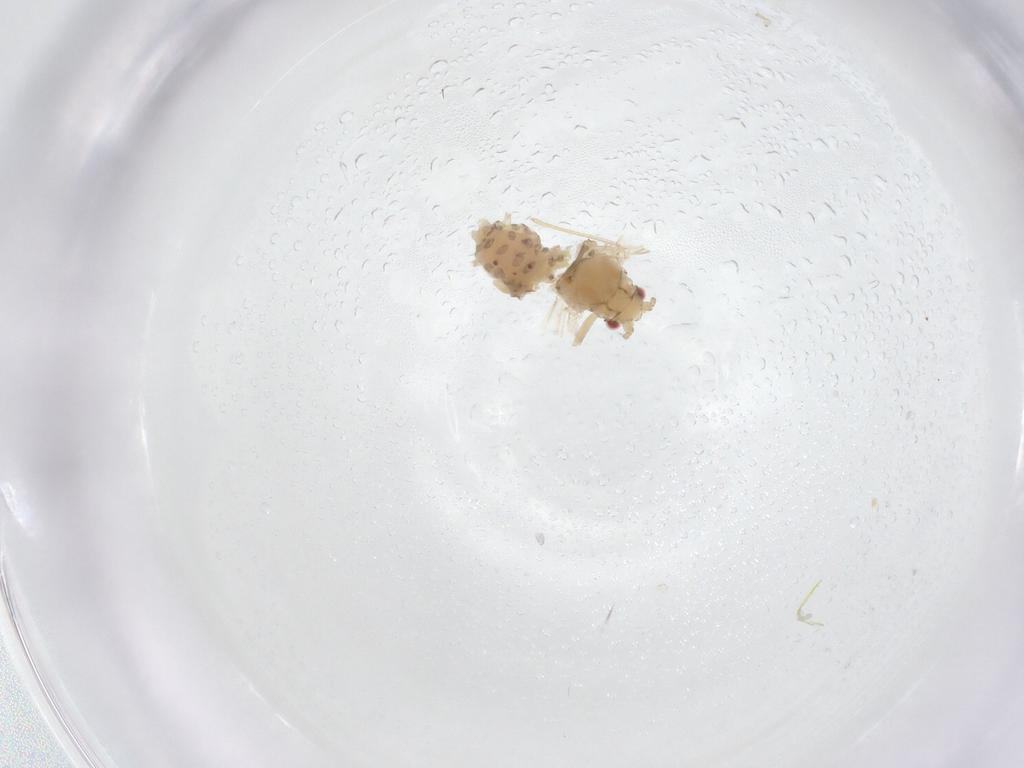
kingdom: Animalia
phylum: Arthropoda
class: Insecta
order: Hemiptera
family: Aphididae
